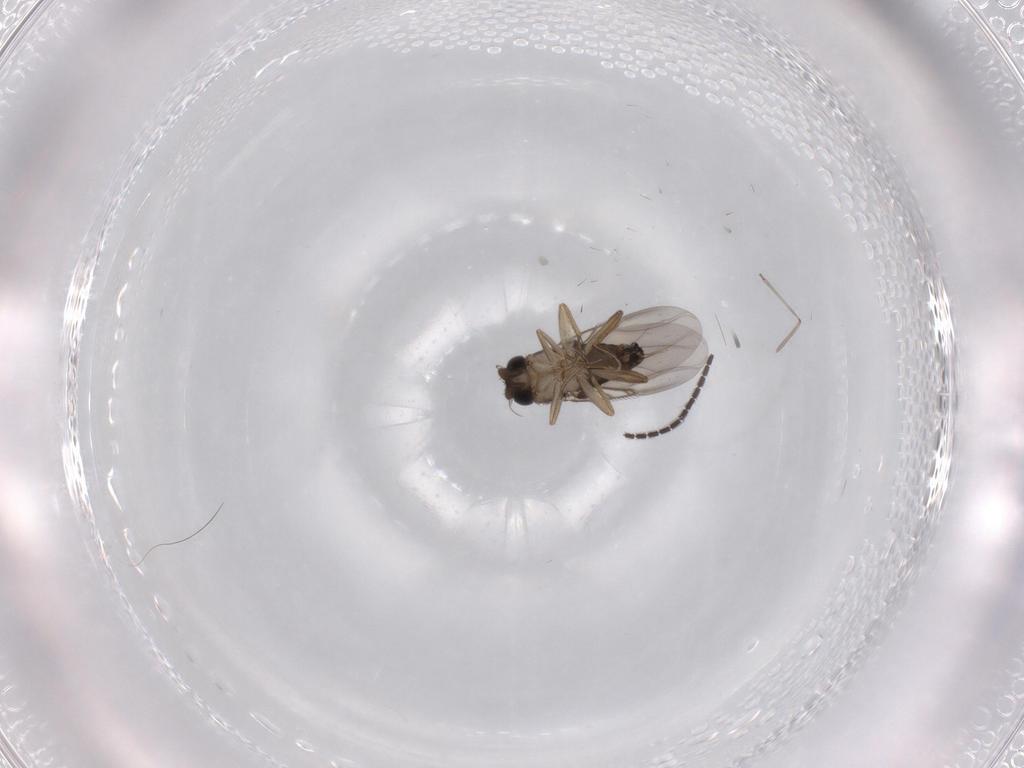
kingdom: Animalia
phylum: Arthropoda
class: Insecta
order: Diptera
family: Sciaridae
